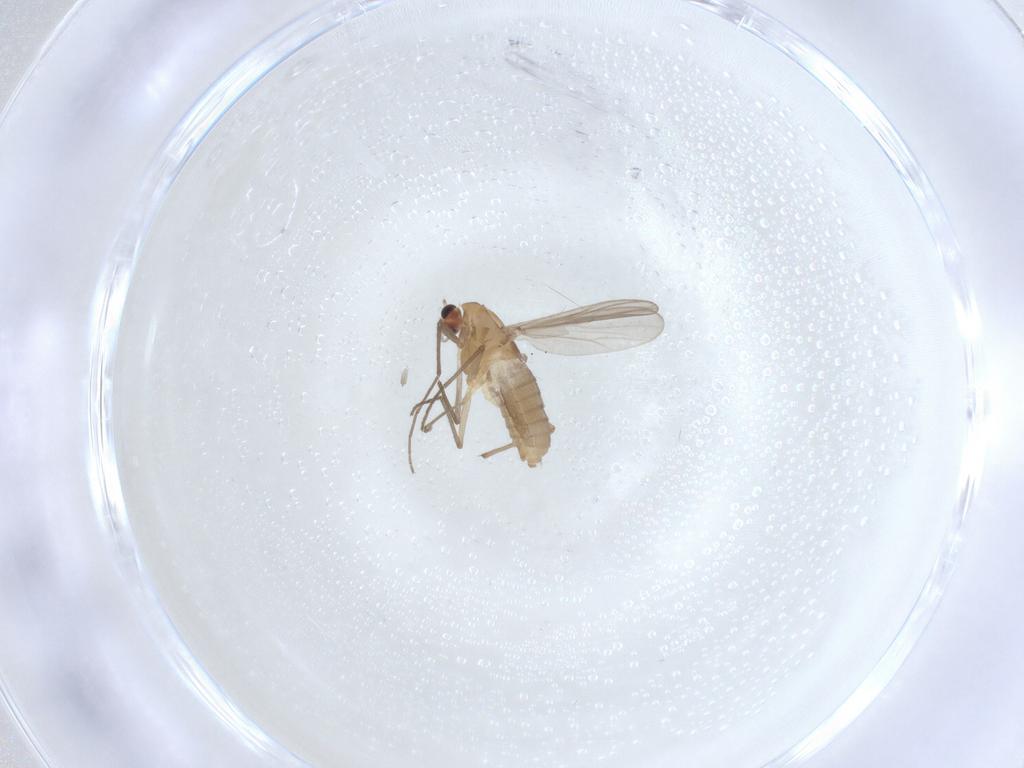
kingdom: Animalia
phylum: Arthropoda
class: Insecta
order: Diptera
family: Chironomidae
